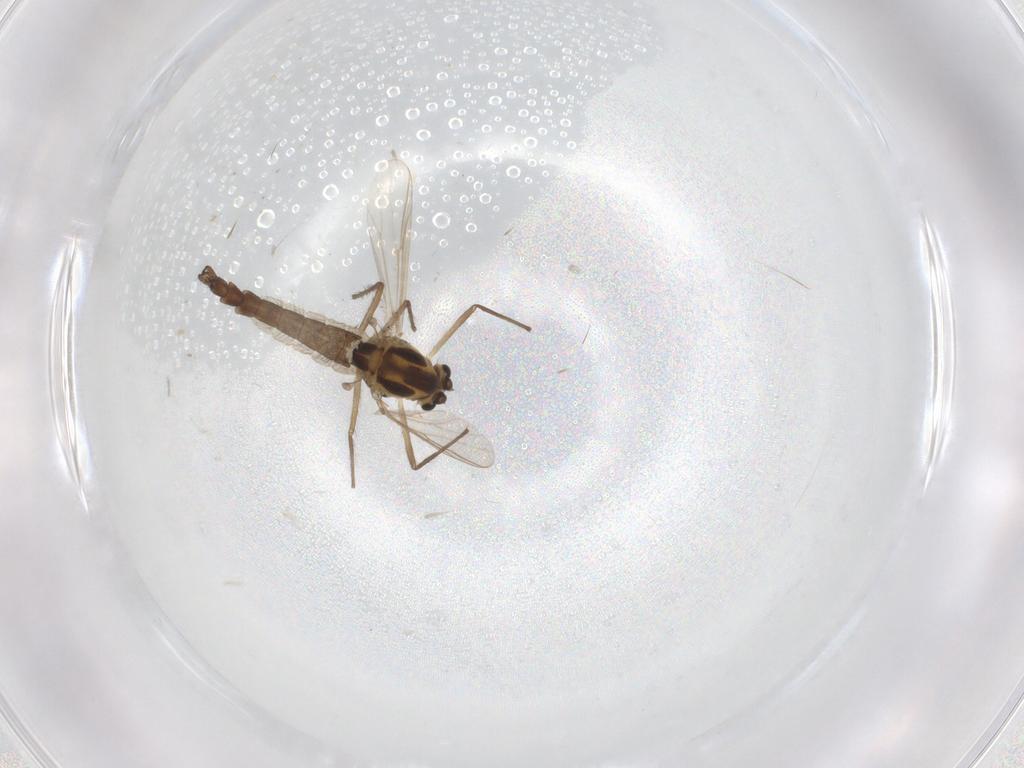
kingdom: Animalia
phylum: Arthropoda
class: Insecta
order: Diptera
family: Chironomidae
